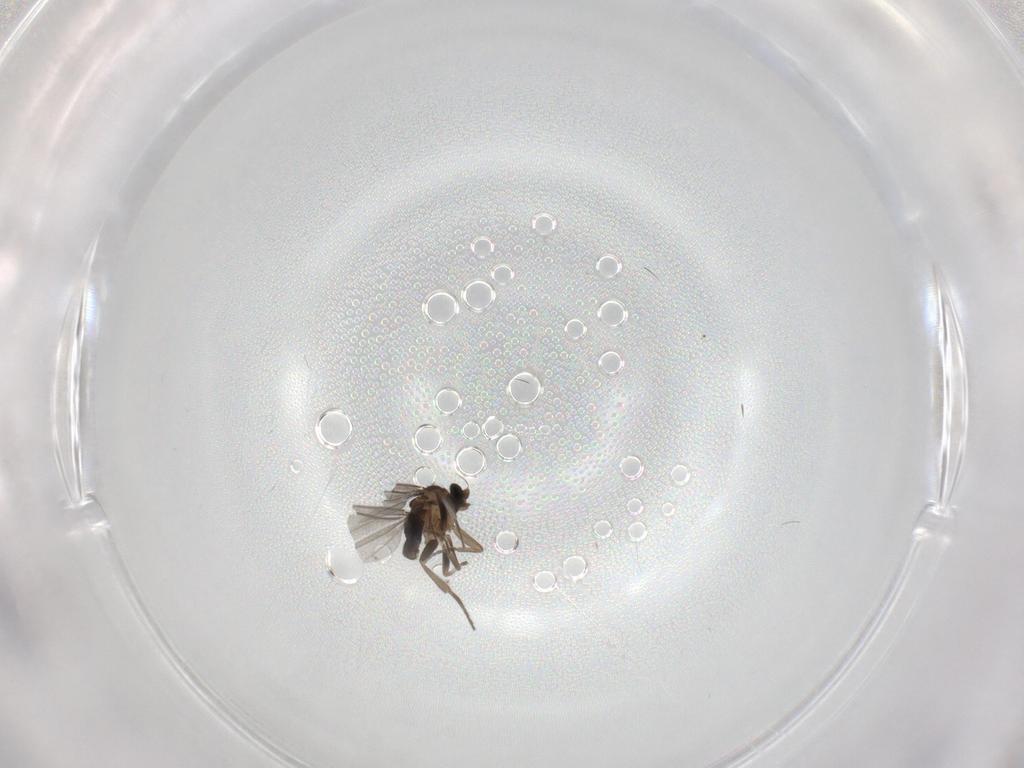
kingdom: Animalia
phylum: Arthropoda
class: Insecta
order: Diptera
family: Phoridae
